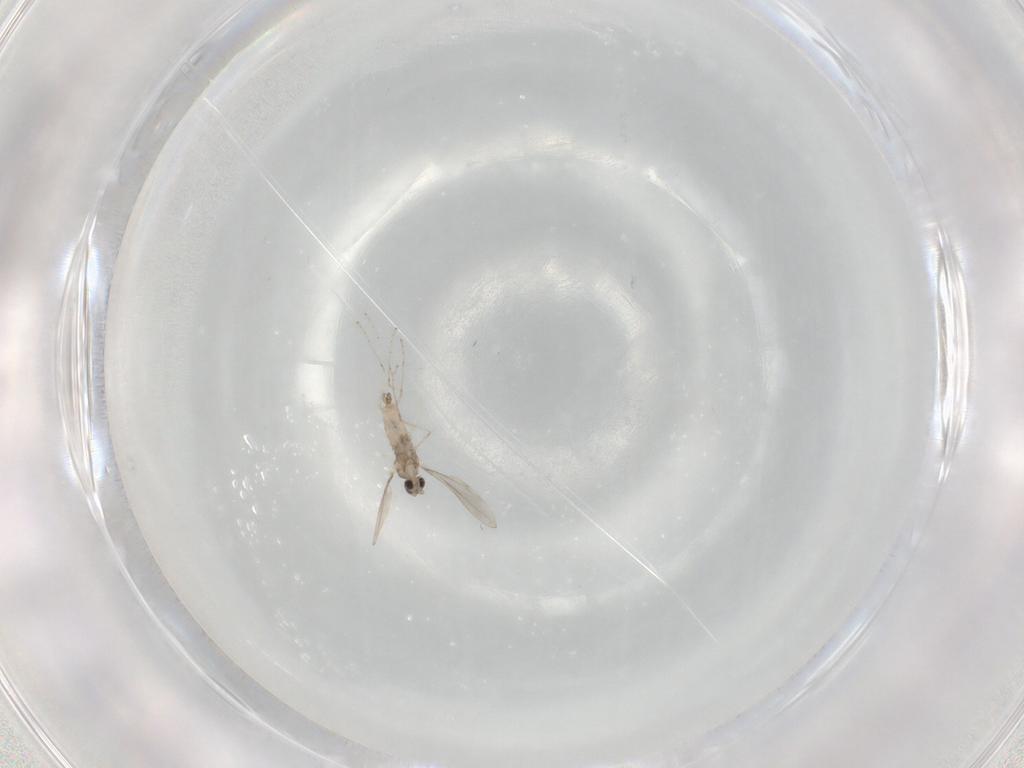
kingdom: Animalia
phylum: Arthropoda
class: Insecta
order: Diptera
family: Cecidomyiidae
